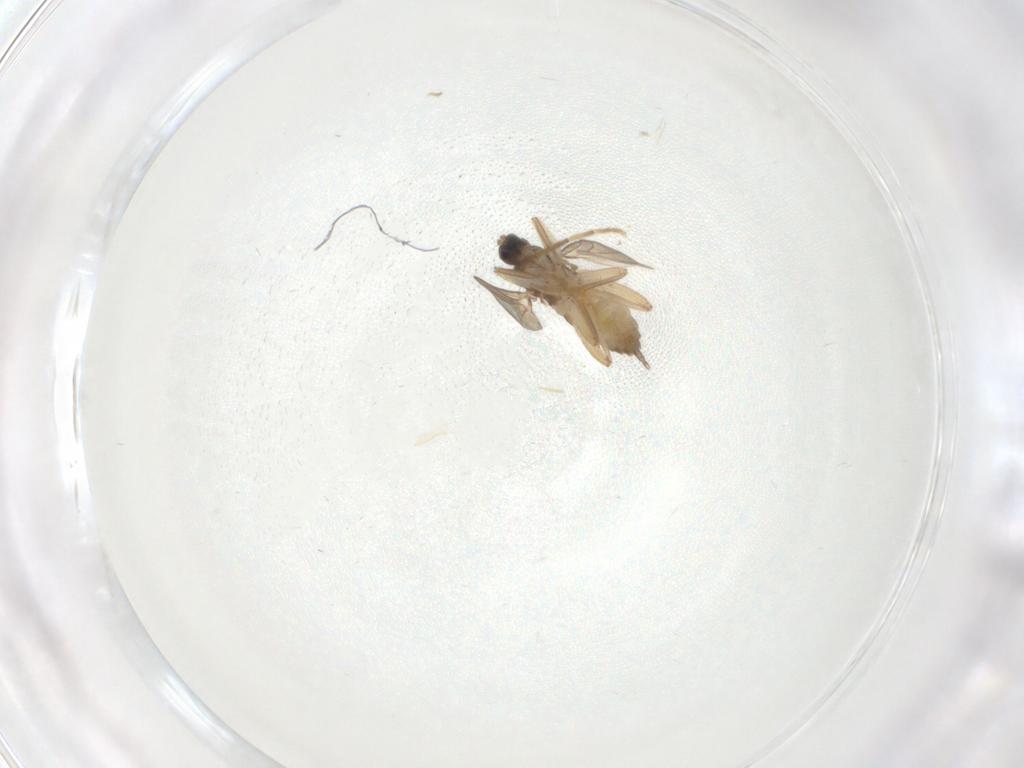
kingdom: Animalia
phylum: Arthropoda
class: Insecta
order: Diptera
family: Hybotidae
